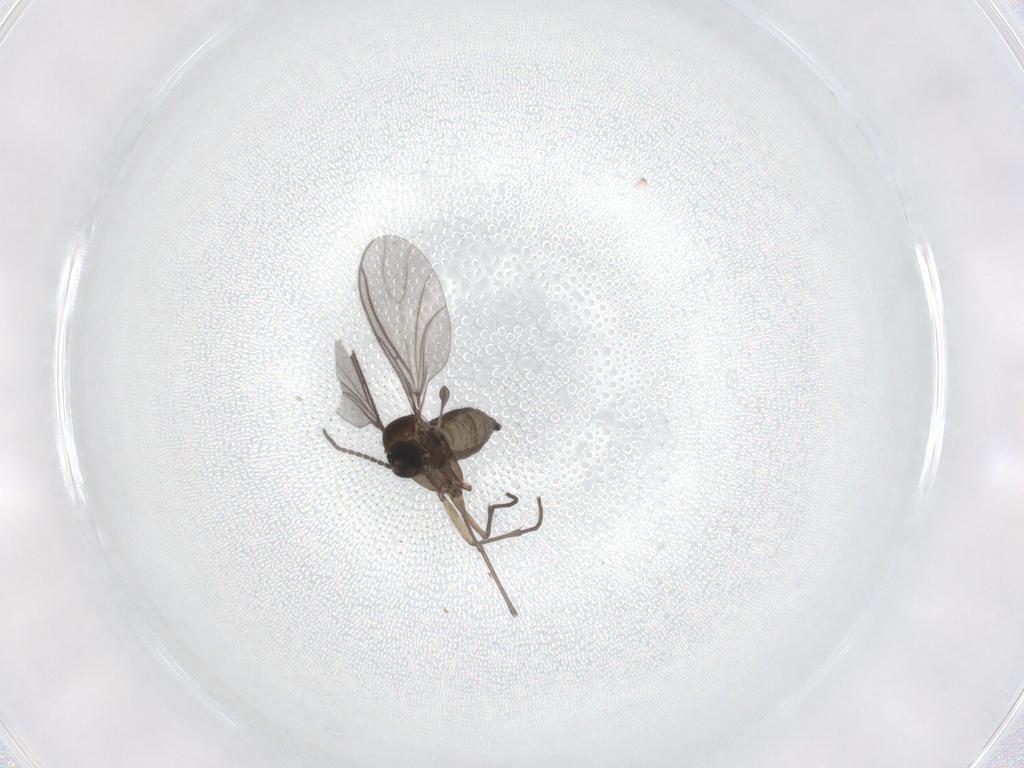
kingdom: Animalia
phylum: Arthropoda
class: Insecta
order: Diptera
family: Sciaridae
